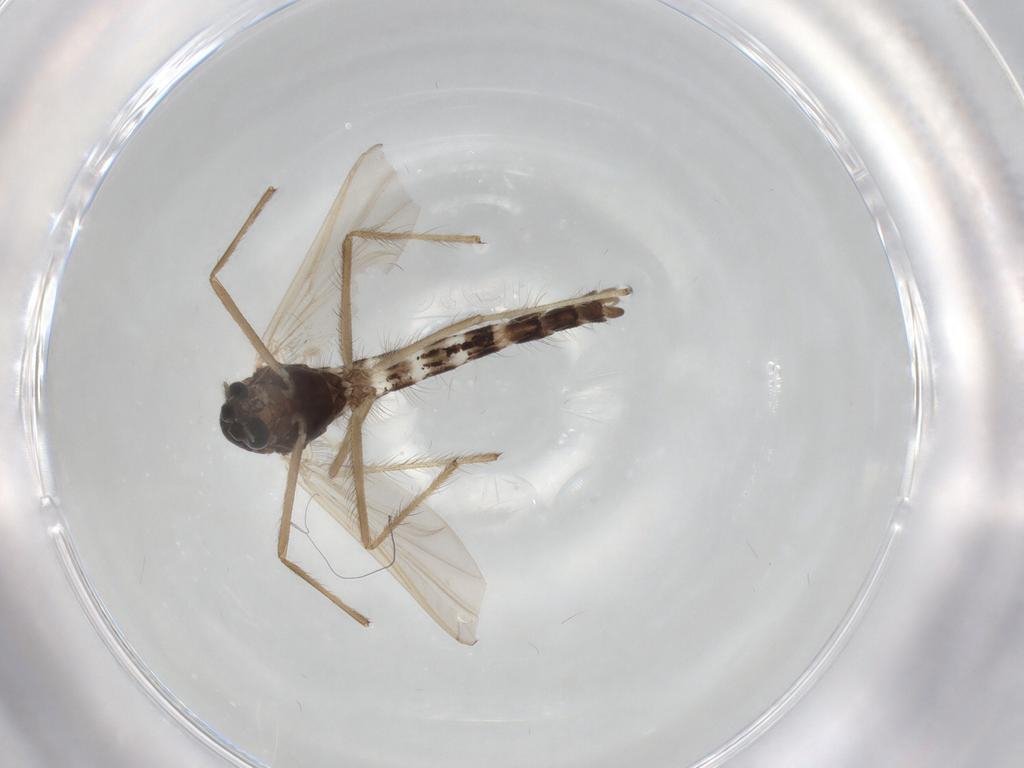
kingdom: Animalia
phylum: Arthropoda
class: Insecta
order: Diptera
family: Chironomidae
